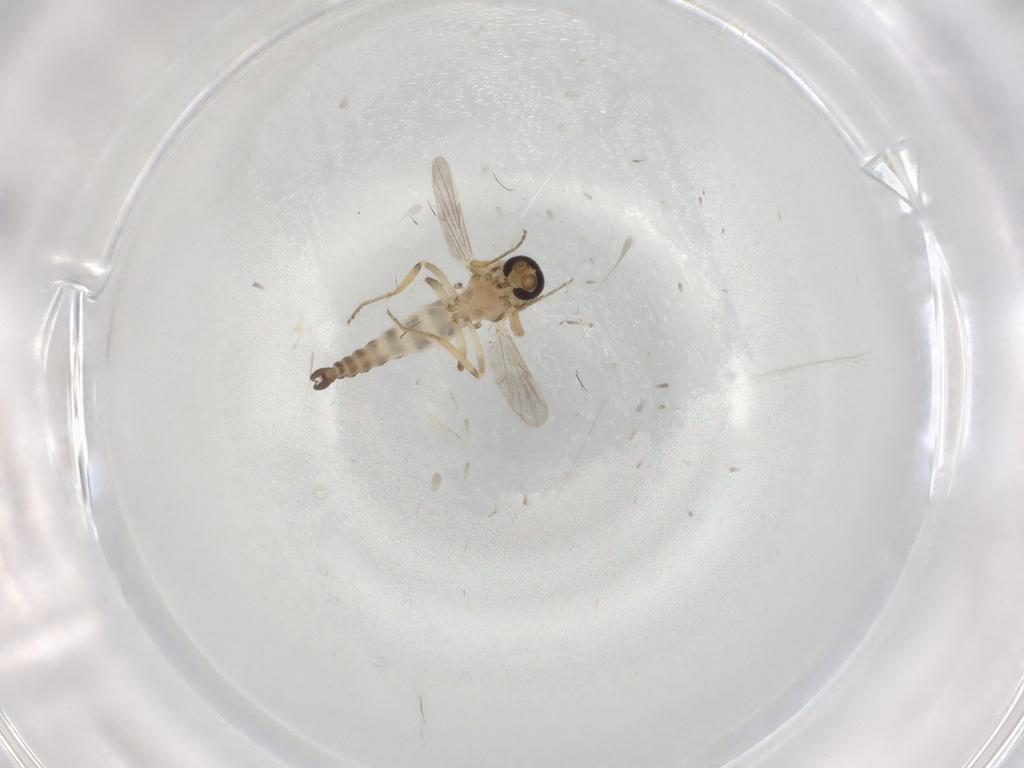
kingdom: Animalia
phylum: Arthropoda
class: Insecta
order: Diptera
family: Ceratopogonidae
